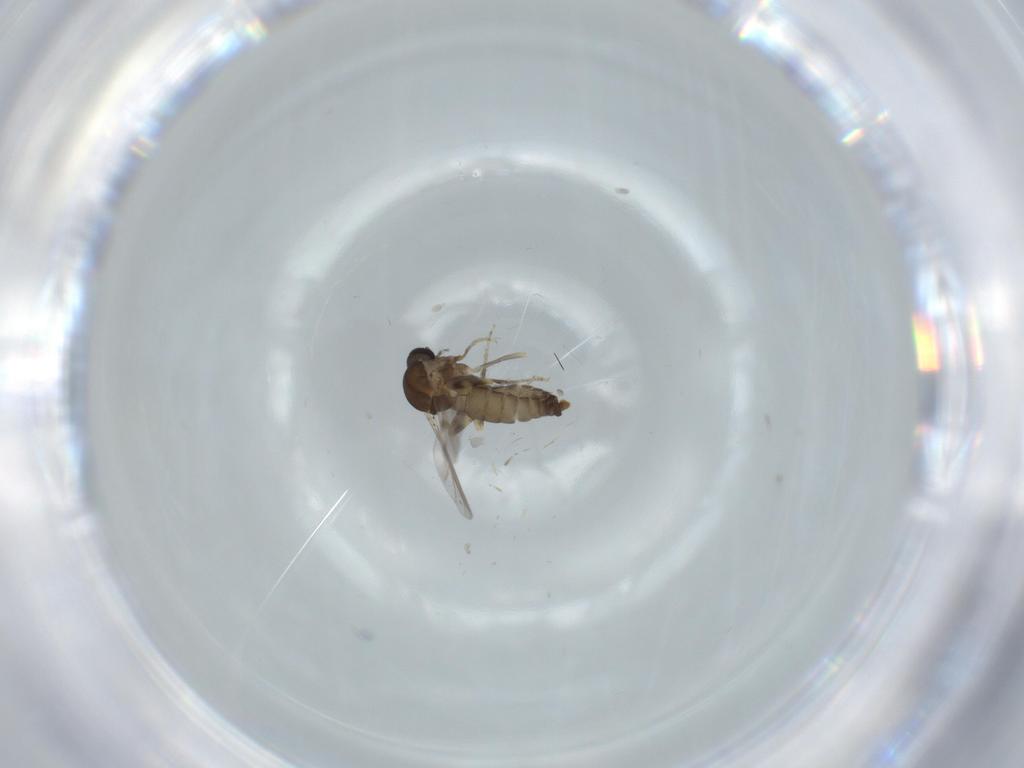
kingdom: Animalia
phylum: Arthropoda
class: Insecta
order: Diptera
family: Ceratopogonidae
